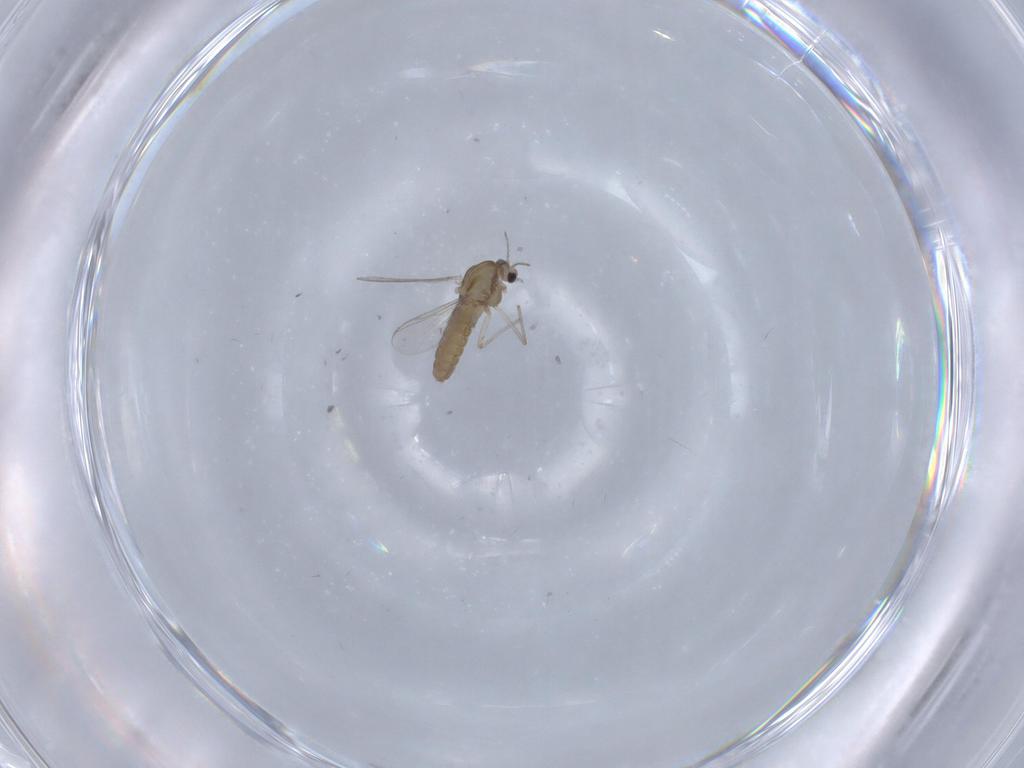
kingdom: Animalia
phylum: Arthropoda
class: Insecta
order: Diptera
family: Chironomidae
